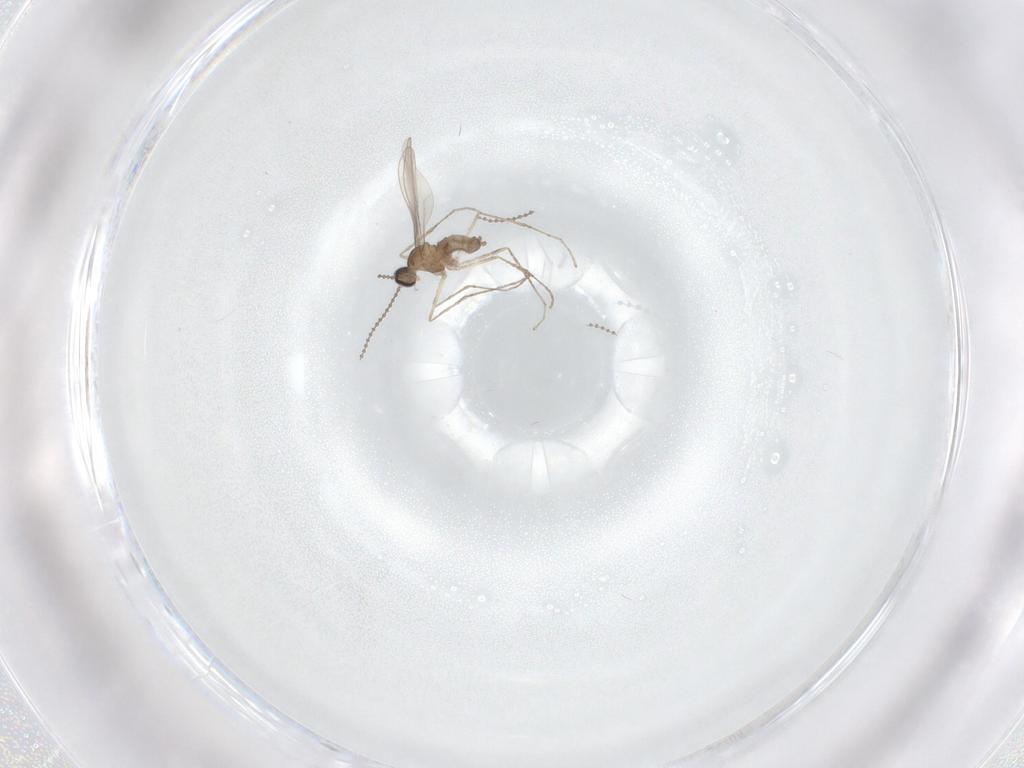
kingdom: Animalia
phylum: Arthropoda
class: Insecta
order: Diptera
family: Cecidomyiidae
